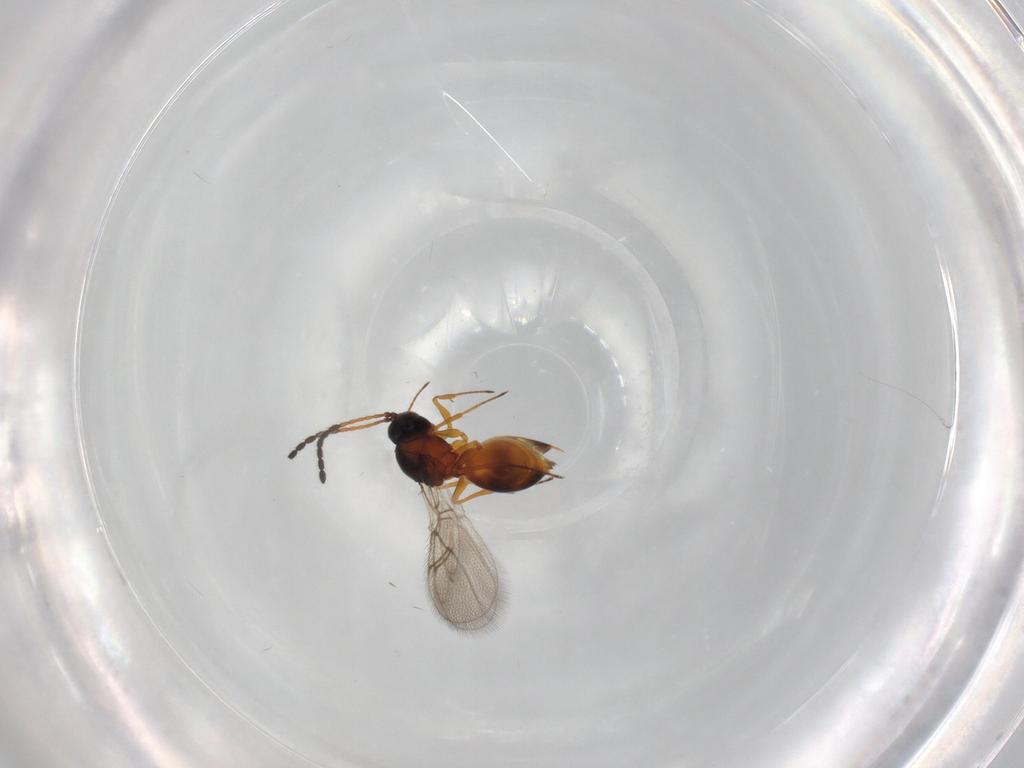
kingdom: Animalia
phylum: Arthropoda
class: Insecta
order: Hymenoptera
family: Figitidae
